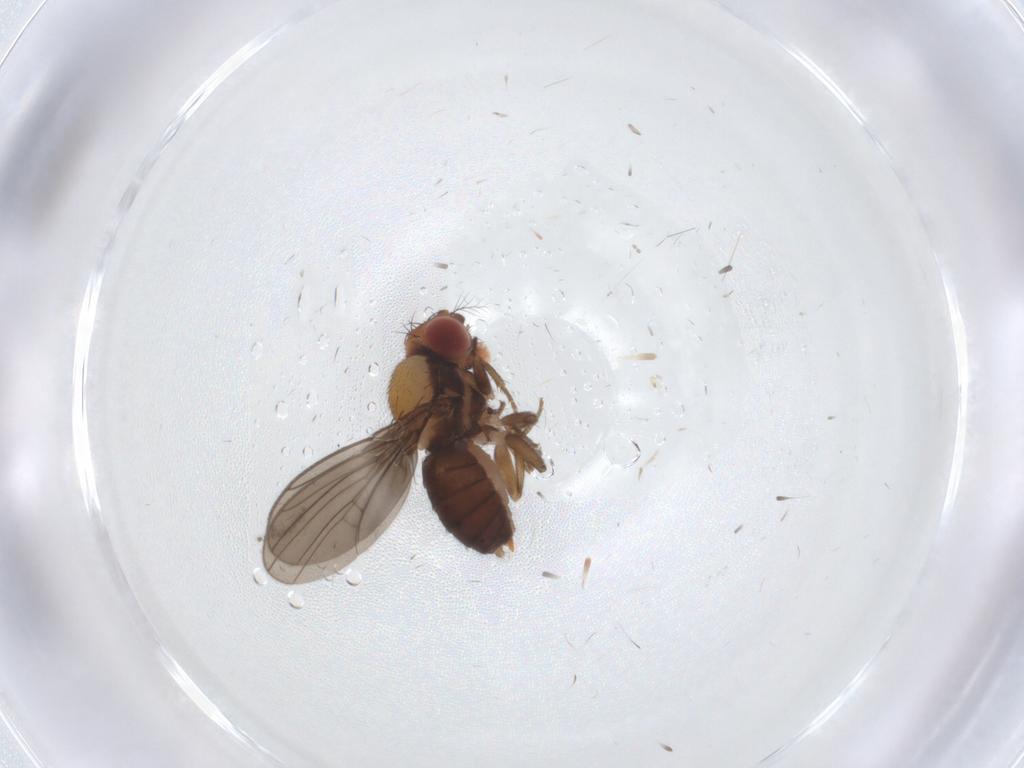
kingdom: Animalia
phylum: Arthropoda
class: Insecta
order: Diptera
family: Drosophilidae
